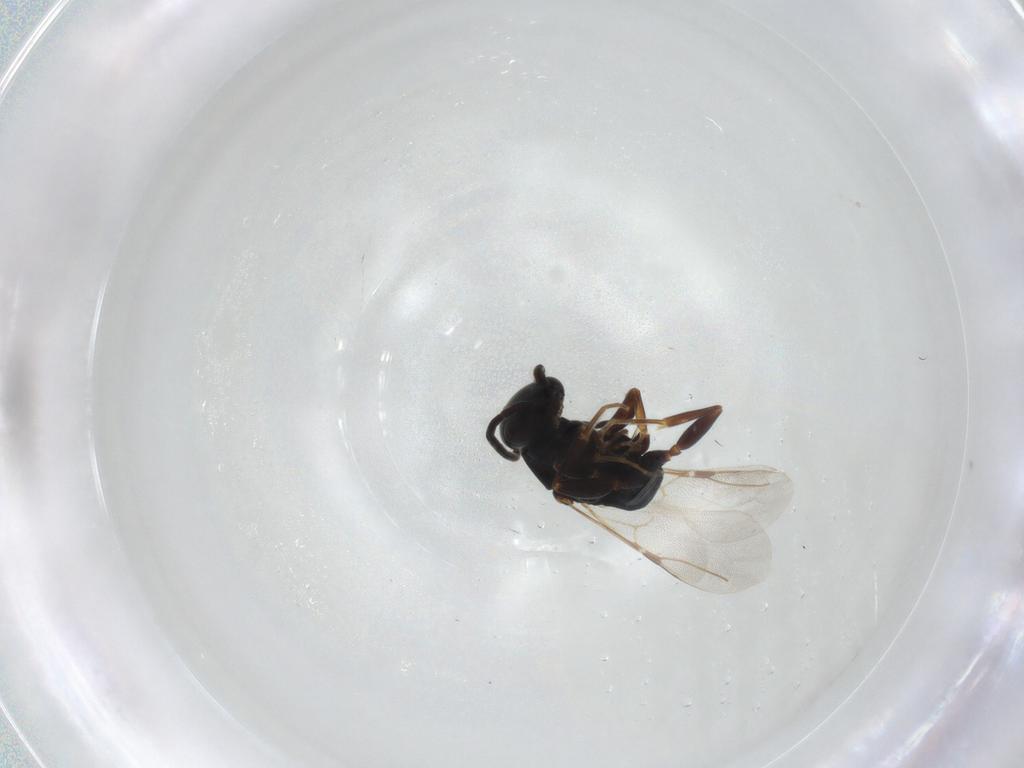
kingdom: Animalia
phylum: Arthropoda
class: Insecta
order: Hymenoptera
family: Bethylidae
